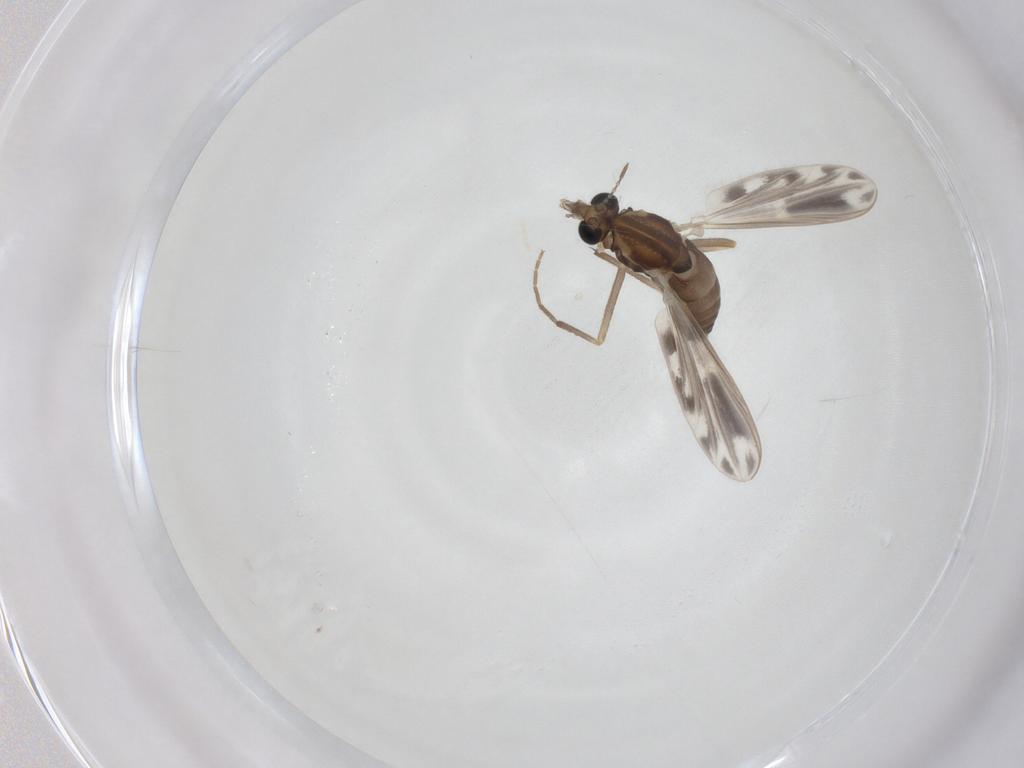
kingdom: Animalia
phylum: Arthropoda
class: Insecta
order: Diptera
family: Chironomidae
